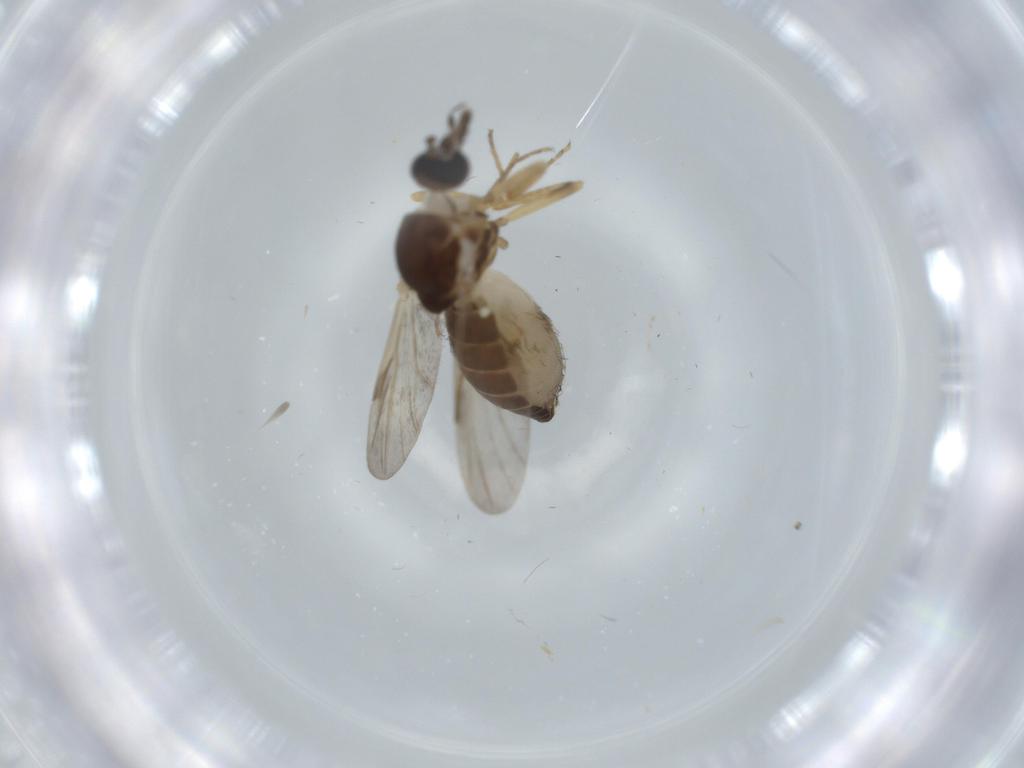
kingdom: Animalia
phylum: Arthropoda
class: Insecta
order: Diptera
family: Ceratopogonidae
